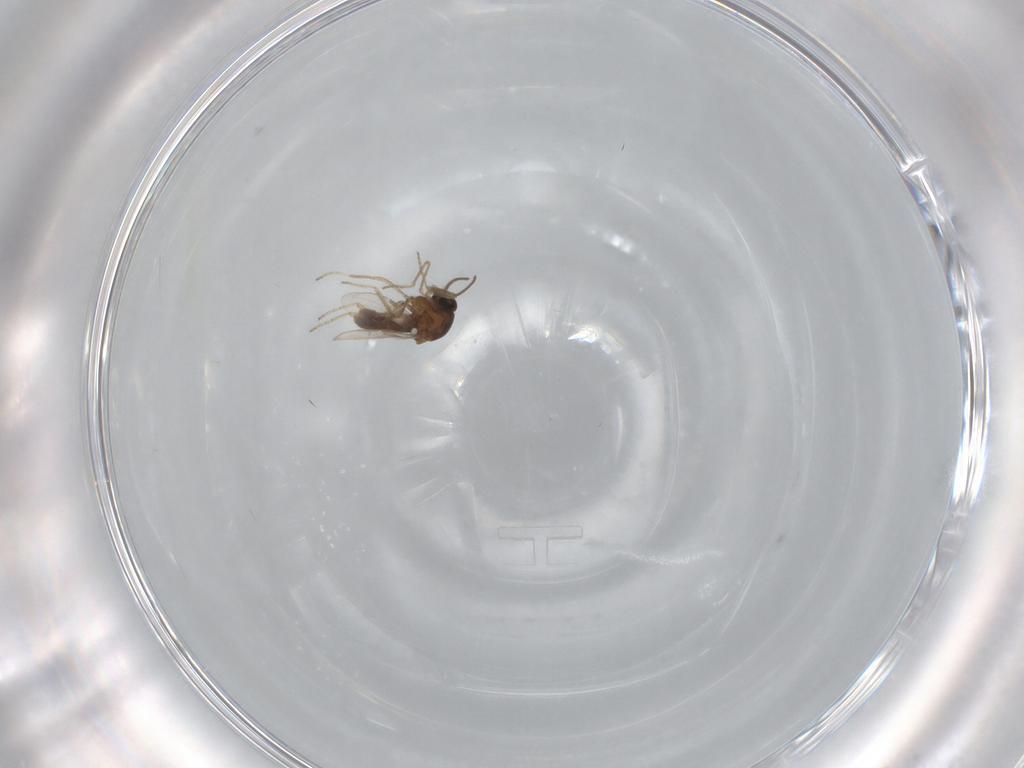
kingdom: Animalia
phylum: Arthropoda
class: Insecta
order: Diptera
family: Ceratopogonidae
